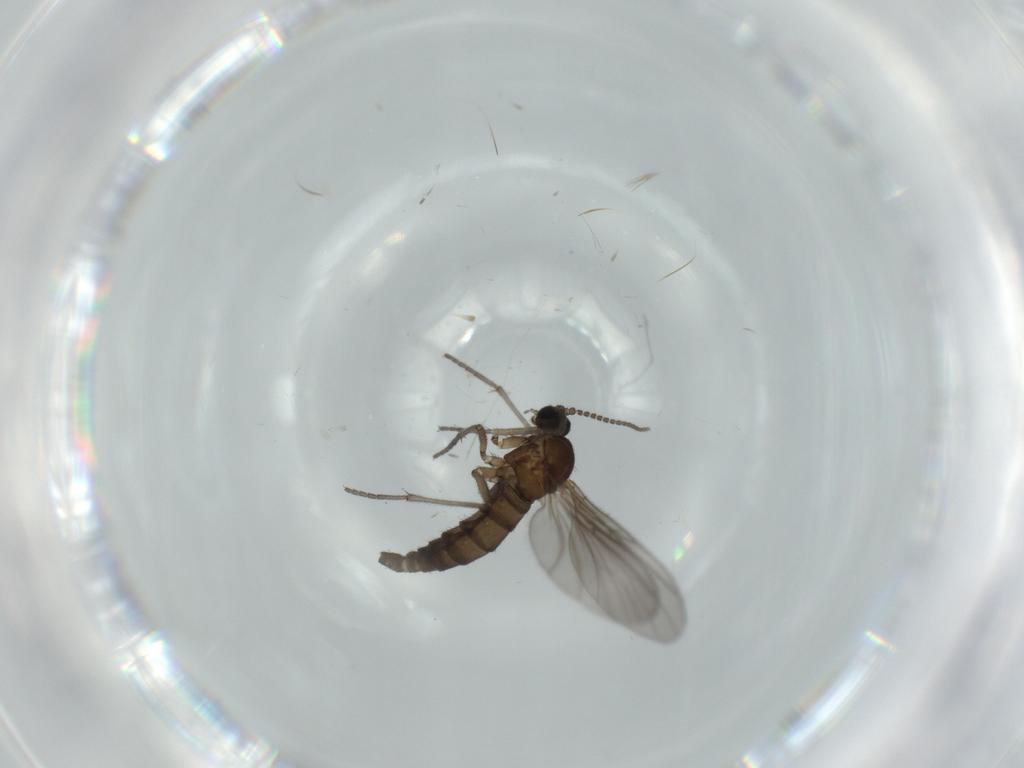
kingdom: Animalia
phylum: Arthropoda
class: Insecta
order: Diptera
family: Sciaridae
